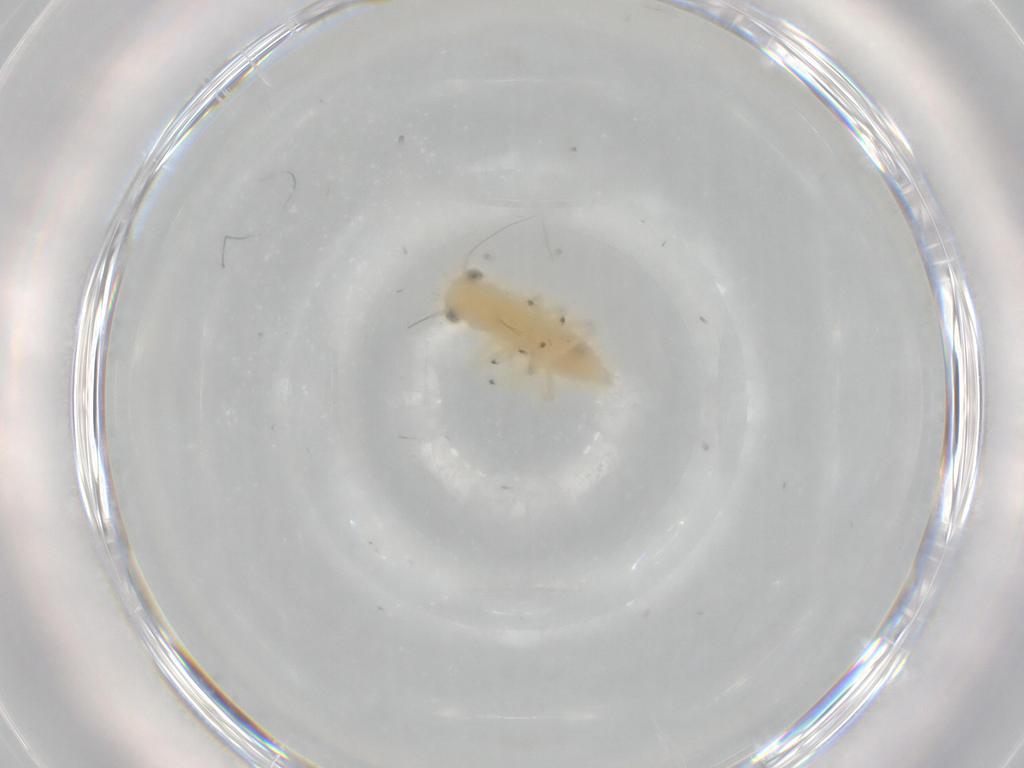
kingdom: Animalia
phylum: Arthropoda
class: Insecta
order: Hemiptera
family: Cicadellidae
